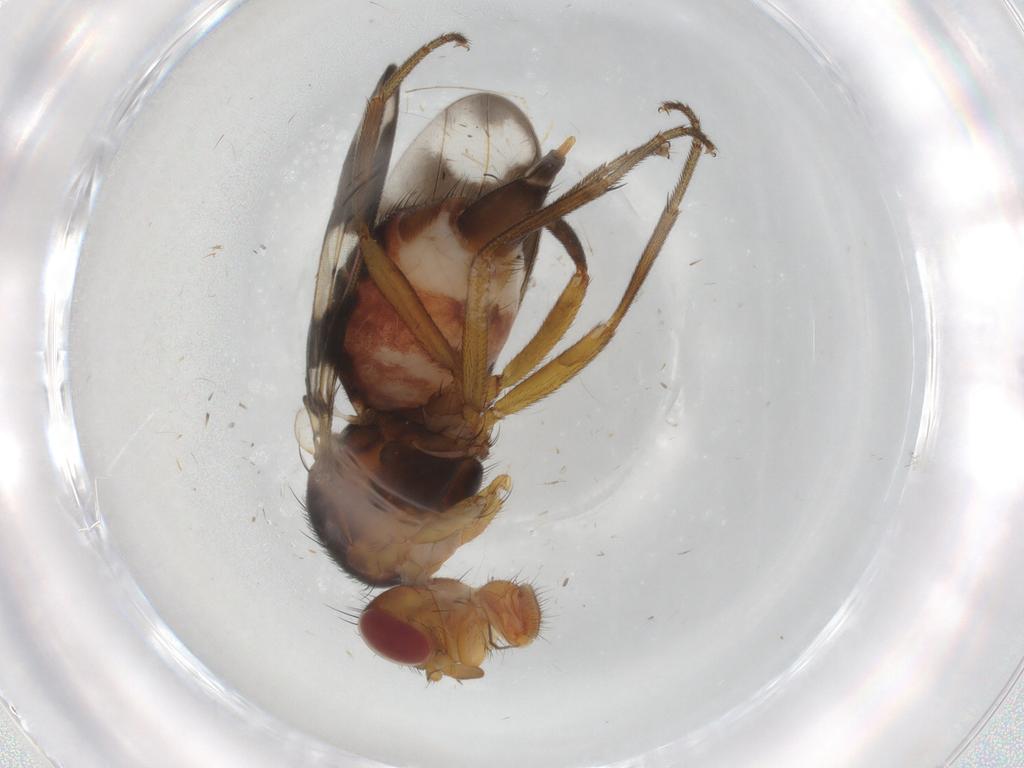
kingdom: Animalia
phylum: Arthropoda
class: Insecta
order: Diptera
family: Richardiidae
